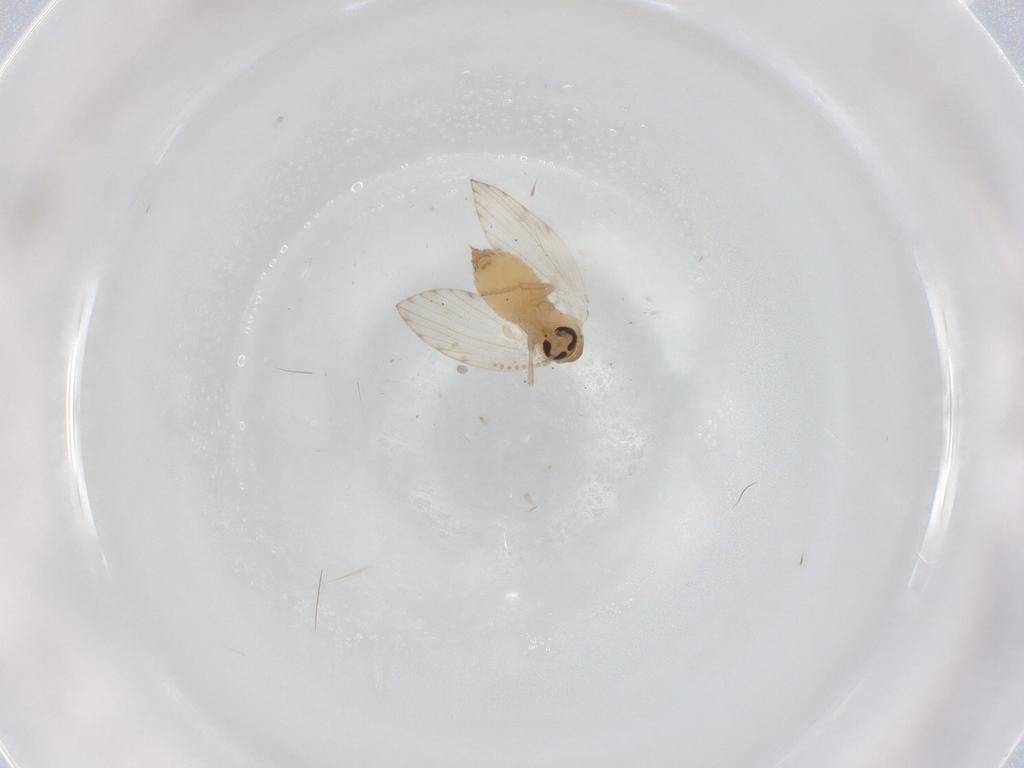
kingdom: Animalia
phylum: Arthropoda
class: Insecta
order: Diptera
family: Psychodidae
